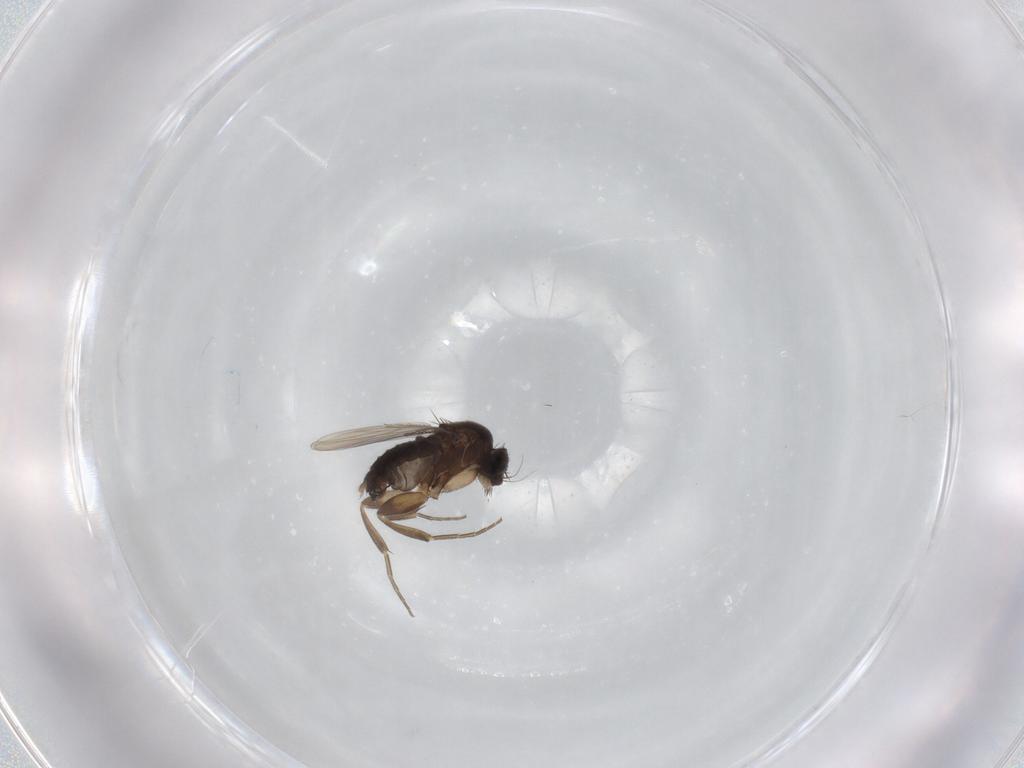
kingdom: Animalia
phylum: Arthropoda
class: Insecta
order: Diptera
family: Phoridae
